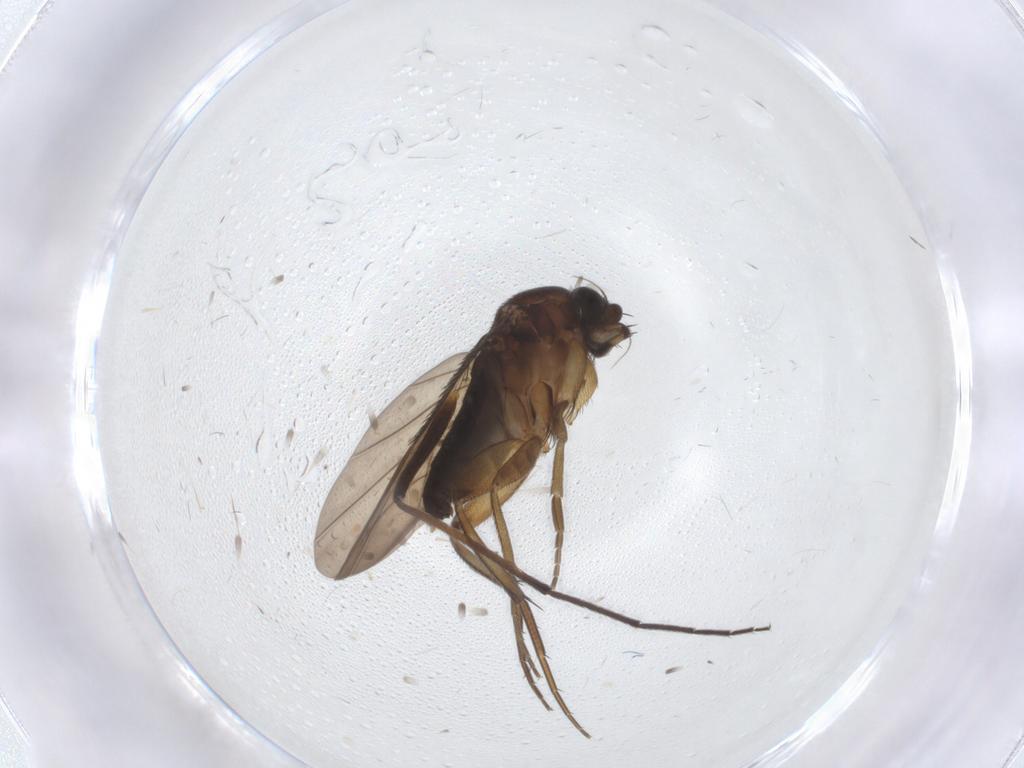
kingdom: Animalia
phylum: Arthropoda
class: Insecta
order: Diptera
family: Phoridae
